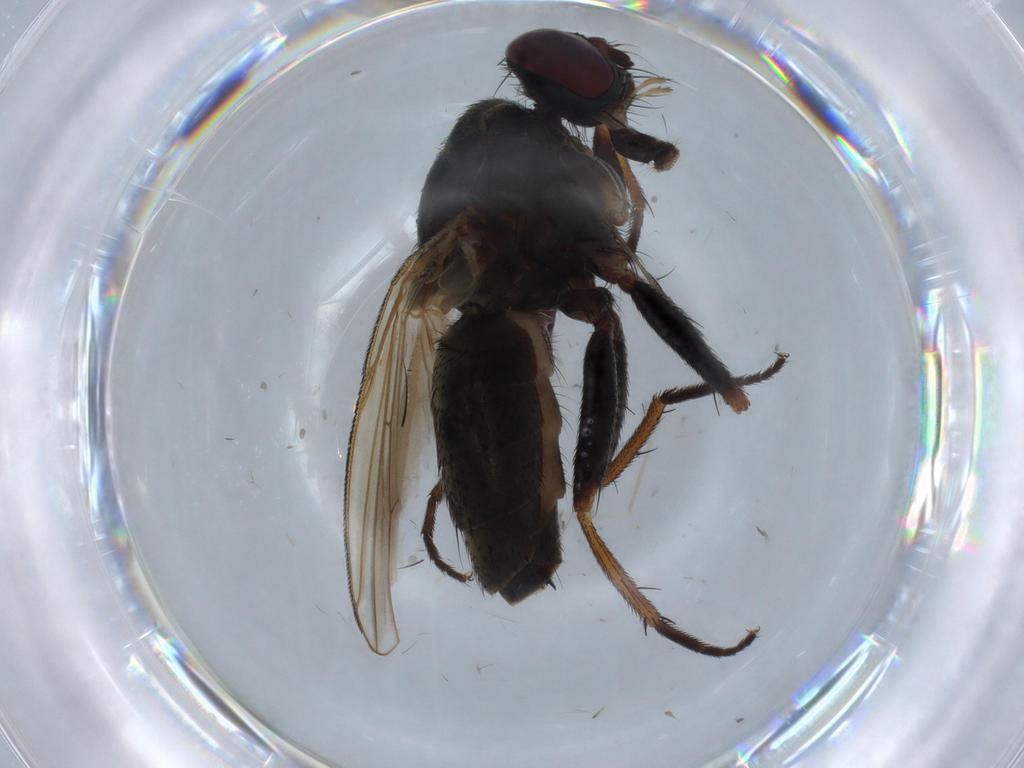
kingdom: Animalia
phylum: Arthropoda
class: Insecta
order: Diptera
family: Muscidae
